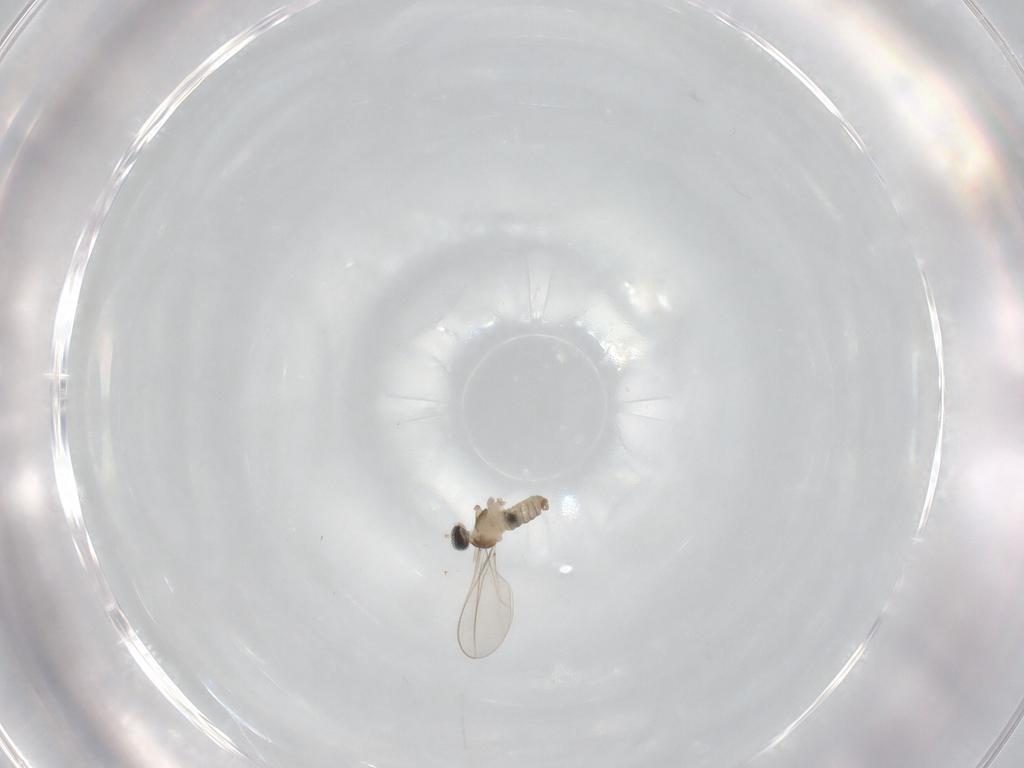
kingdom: Animalia
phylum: Arthropoda
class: Insecta
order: Diptera
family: Cecidomyiidae
